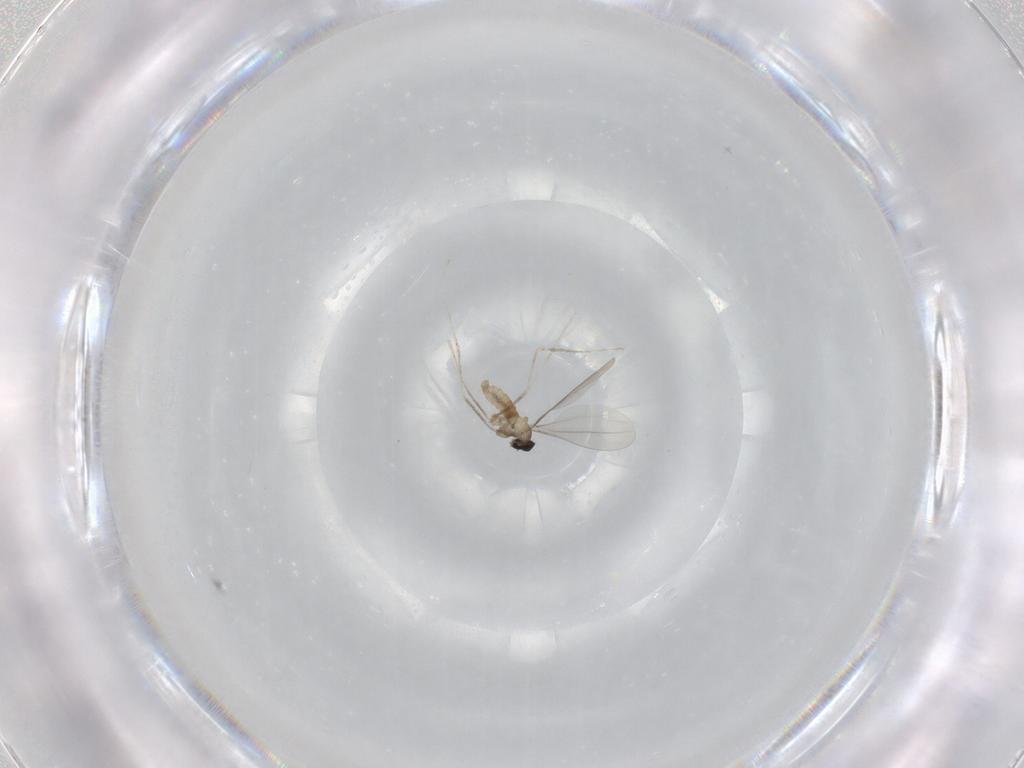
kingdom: Animalia
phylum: Arthropoda
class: Insecta
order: Diptera
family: Cecidomyiidae
